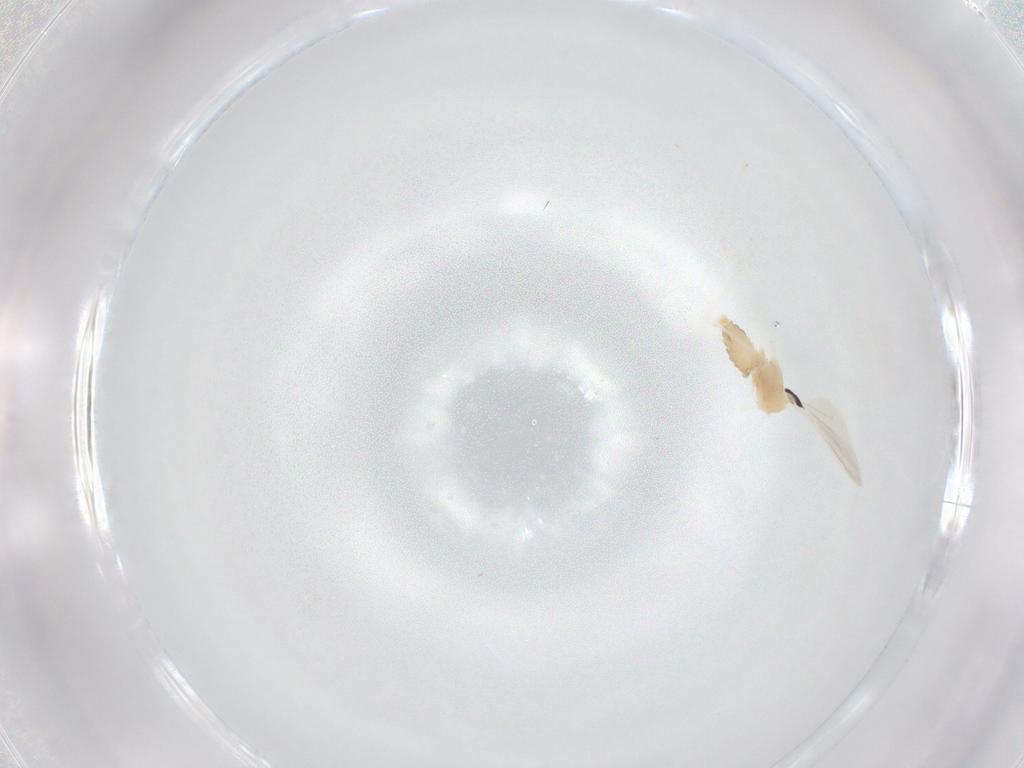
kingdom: Animalia
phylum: Arthropoda
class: Insecta
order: Diptera
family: Cecidomyiidae
